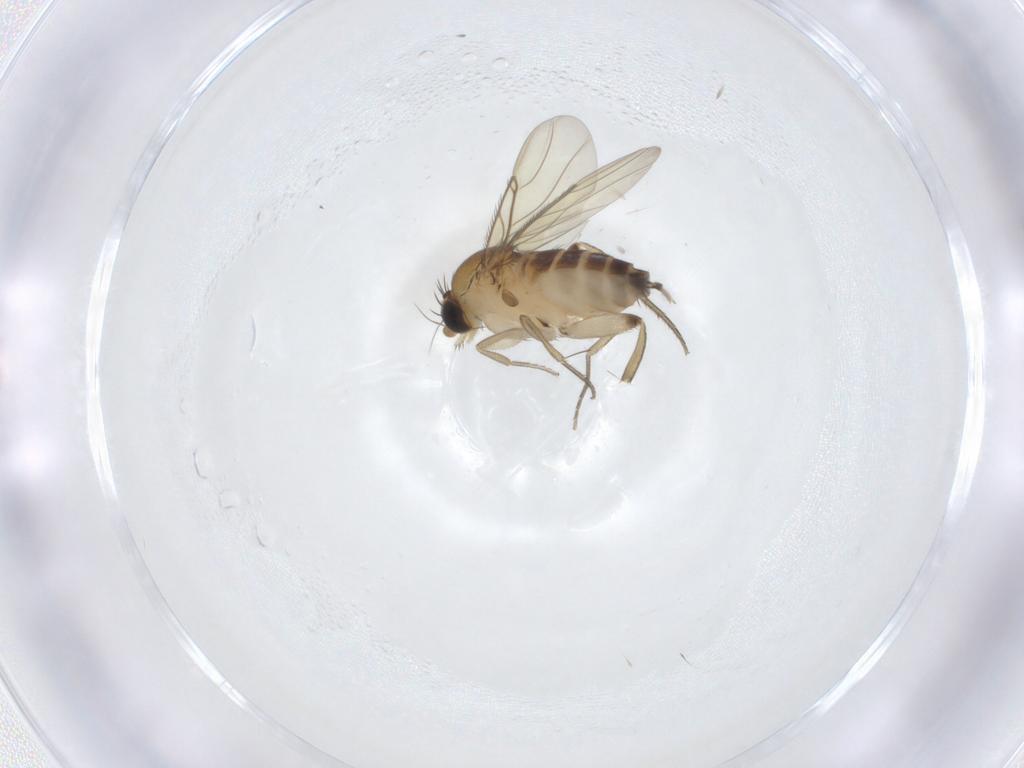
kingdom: Animalia
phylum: Arthropoda
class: Insecta
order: Diptera
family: Phoridae
